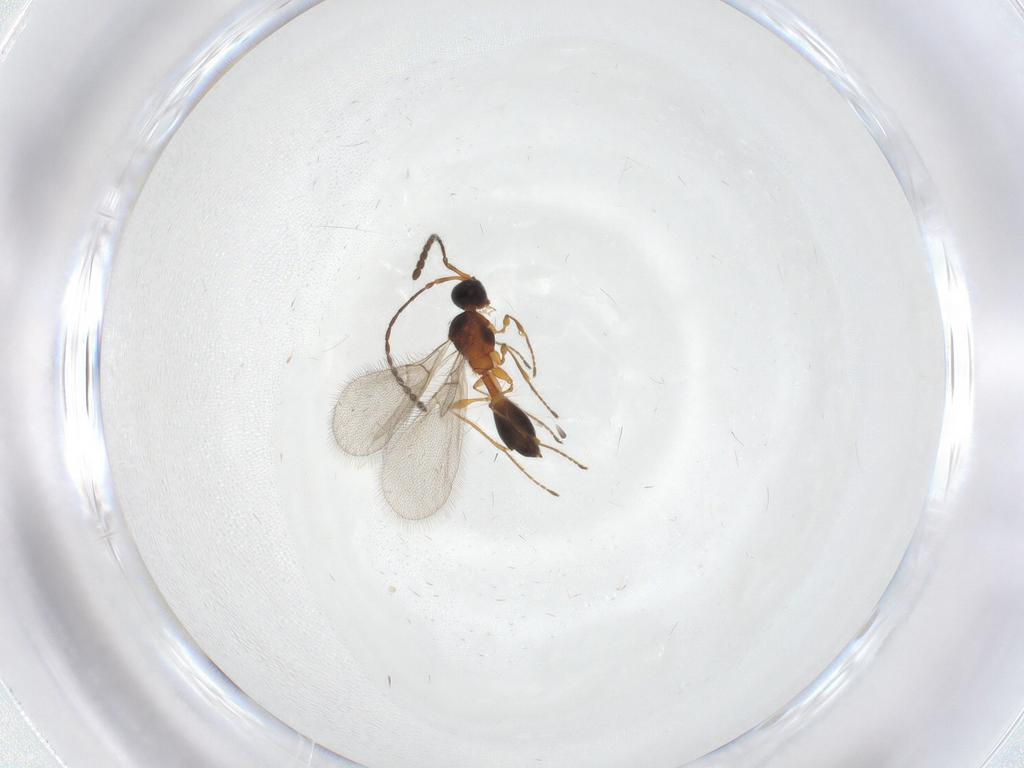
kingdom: Animalia
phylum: Arthropoda
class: Insecta
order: Hymenoptera
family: Diapriidae
